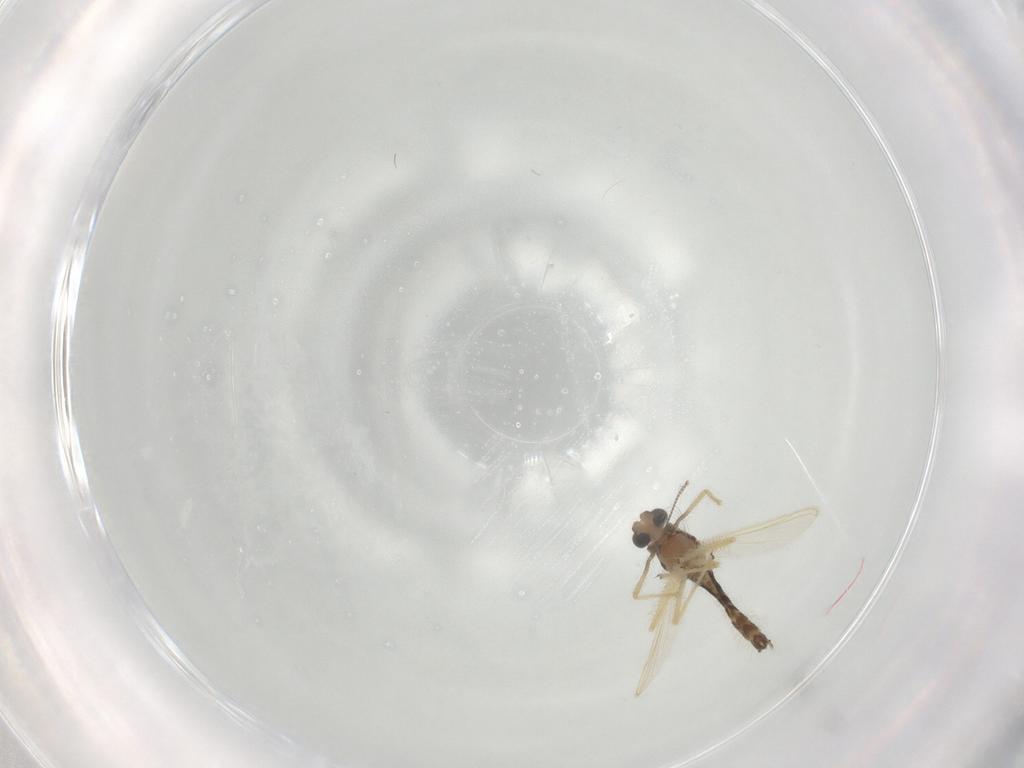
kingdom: Animalia
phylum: Arthropoda
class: Insecta
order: Diptera
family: Chironomidae
